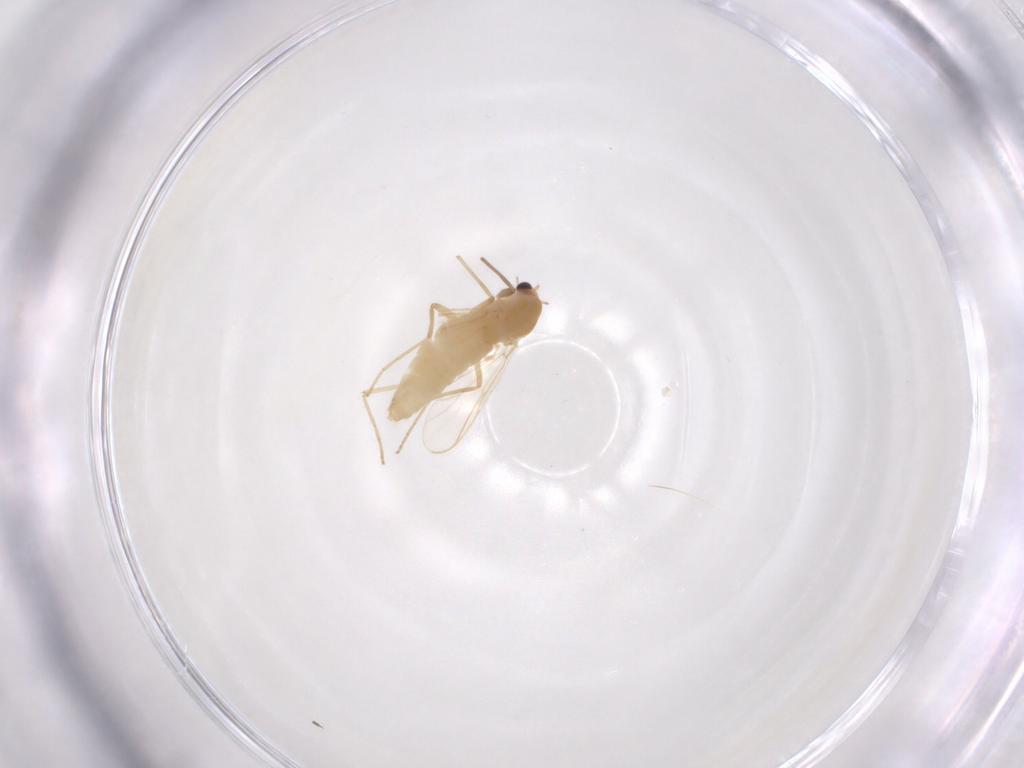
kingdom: Animalia
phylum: Arthropoda
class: Insecta
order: Diptera
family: Chironomidae
